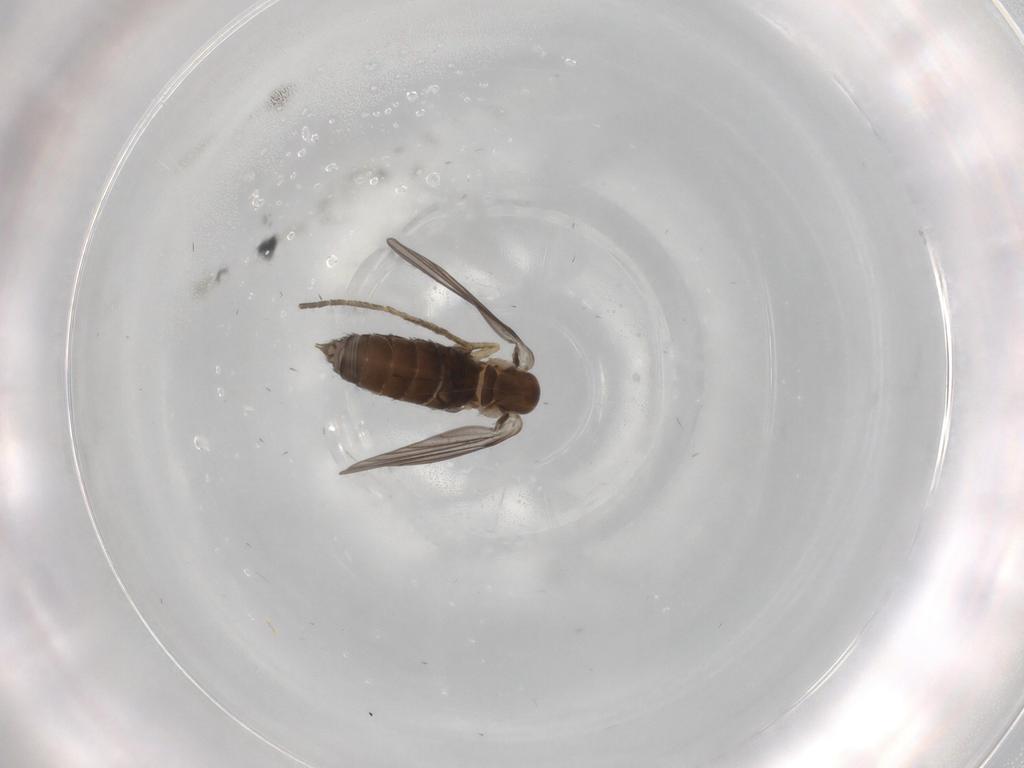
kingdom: Animalia
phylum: Arthropoda
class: Insecta
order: Diptera
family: Psychodidae
